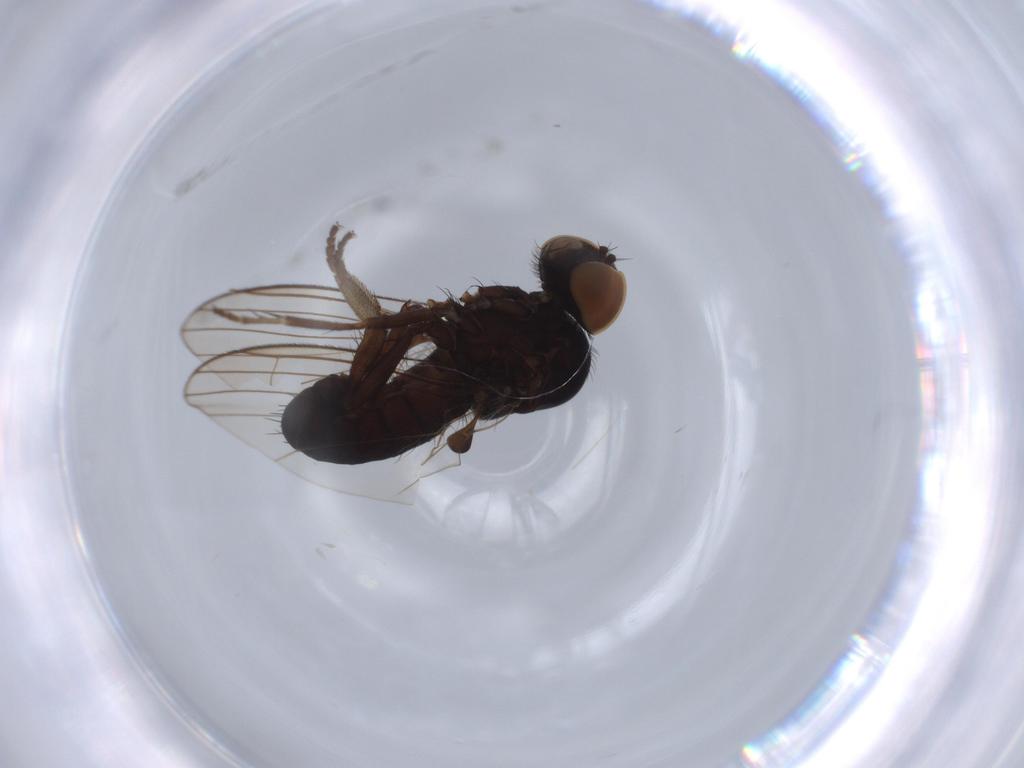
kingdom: Animalia
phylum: Arthropoda
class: Insecta
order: Diptera
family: Platypezidae
